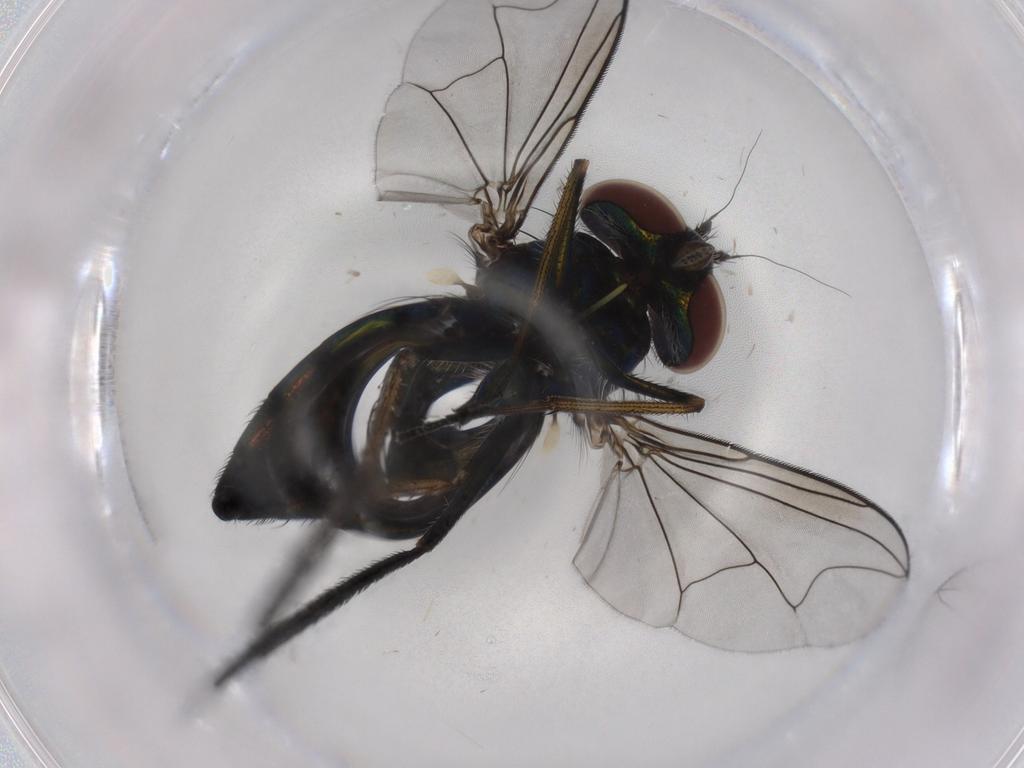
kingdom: Animalia
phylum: Arthropoda
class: Insecta
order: Diptera
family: Dolichopodidae
